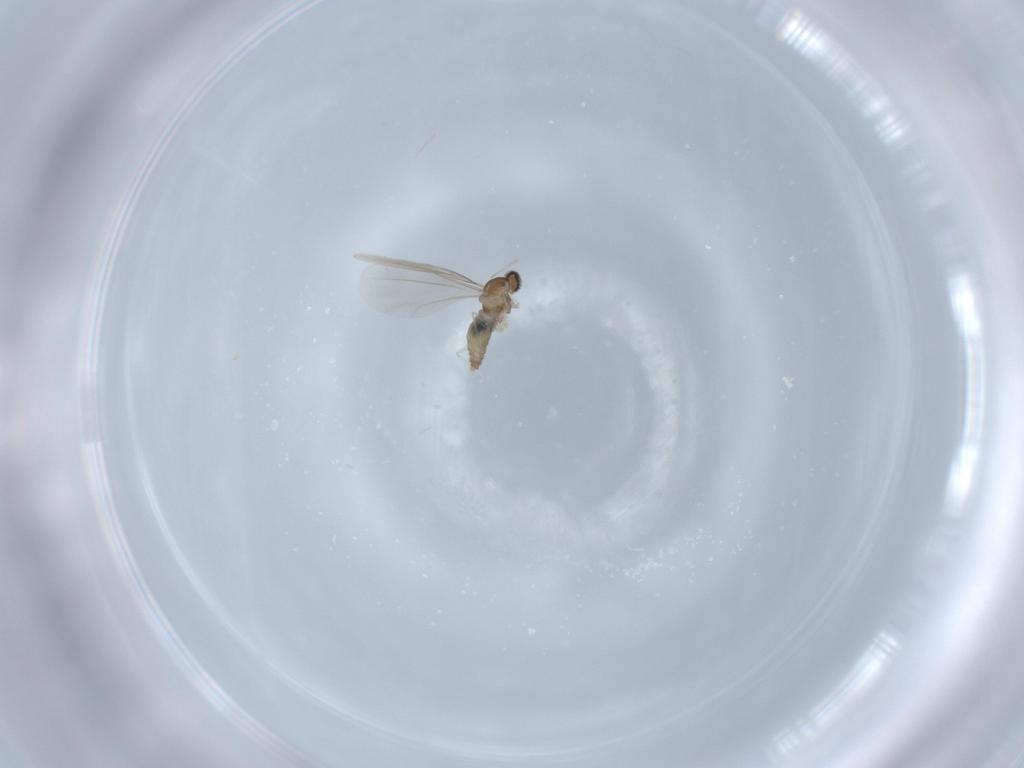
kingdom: Animalia
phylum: Arthropoda
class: Insecta
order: Diptera
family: Cecidomyiidae
